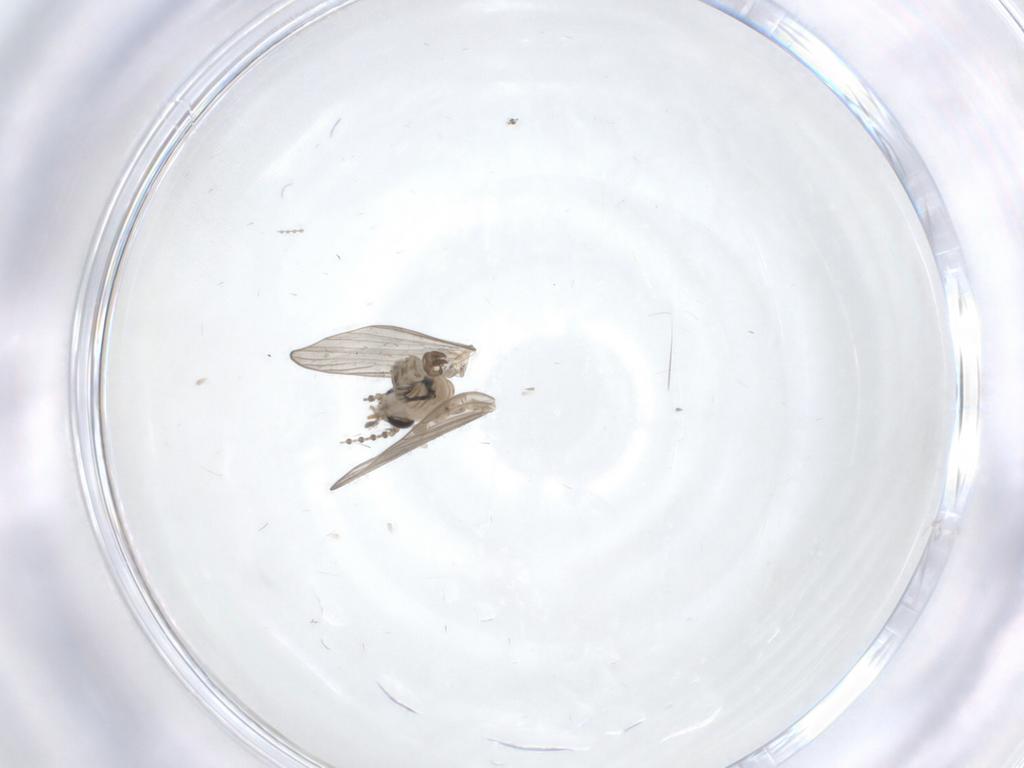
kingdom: Animalia
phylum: Arthropoda
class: Insecta
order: Diptera
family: Psychodidae
